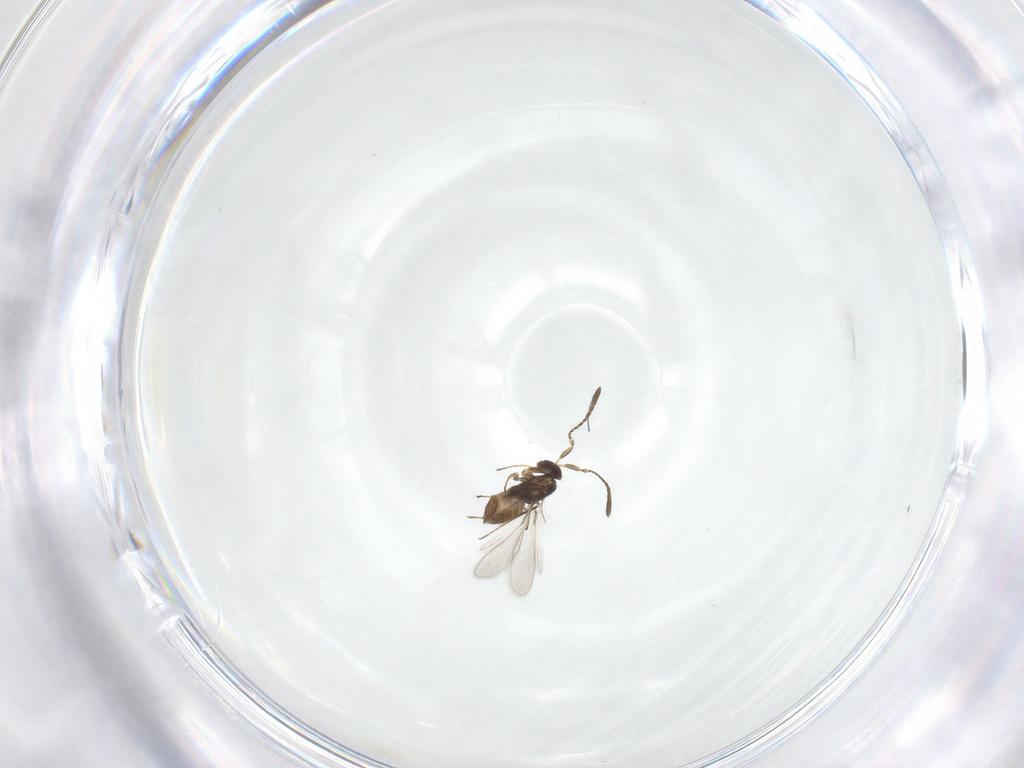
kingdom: Animalia
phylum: Arthropoda
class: Insecta
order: Hymenoptera
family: Mymaridae
